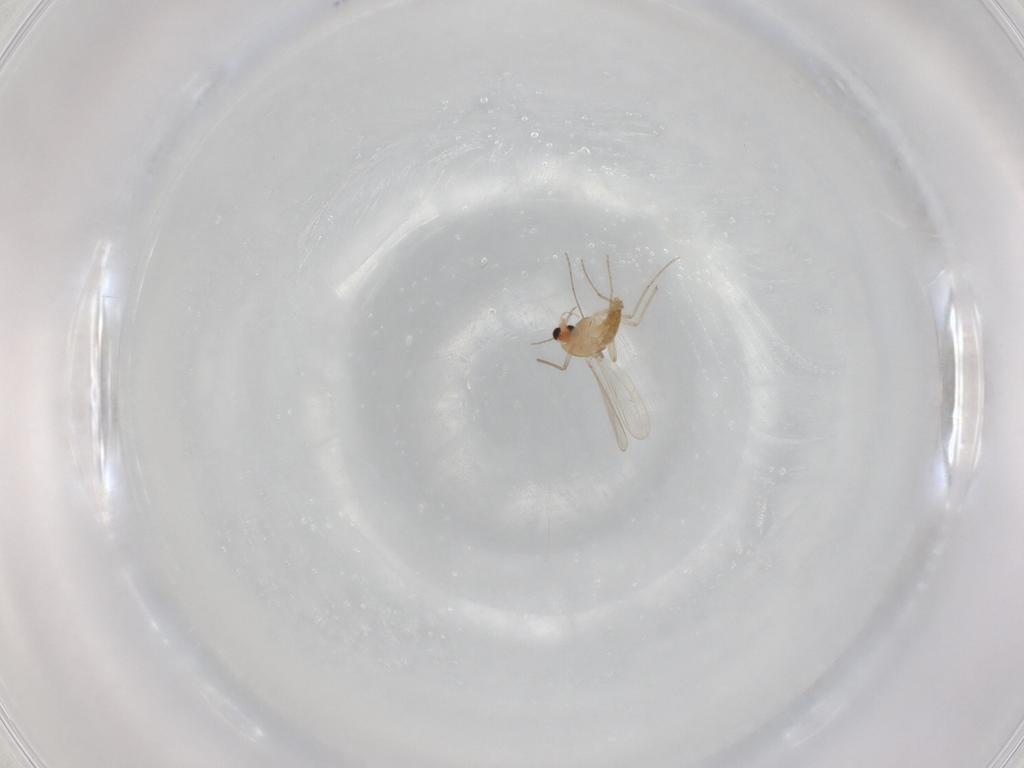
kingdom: Animalia
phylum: Arthropoda
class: Insecta
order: Diptera
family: Chironomidae
